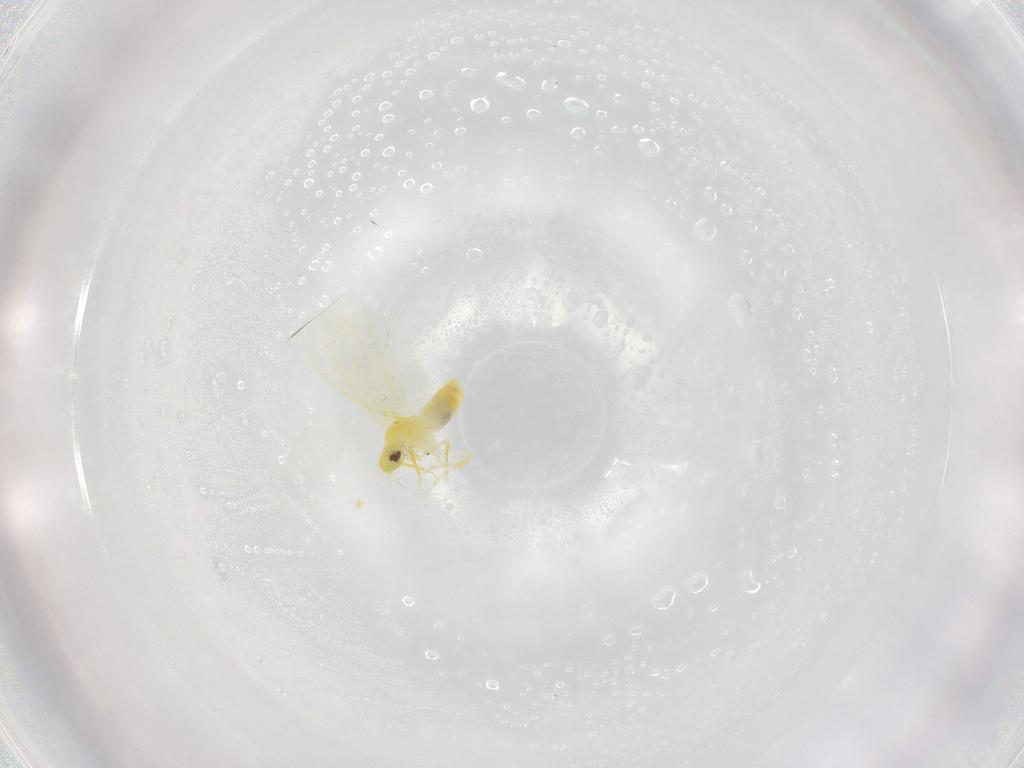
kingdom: Animalia
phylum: Arthropoda
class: Insecta
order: Hemiptera
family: Aleyrodidae
